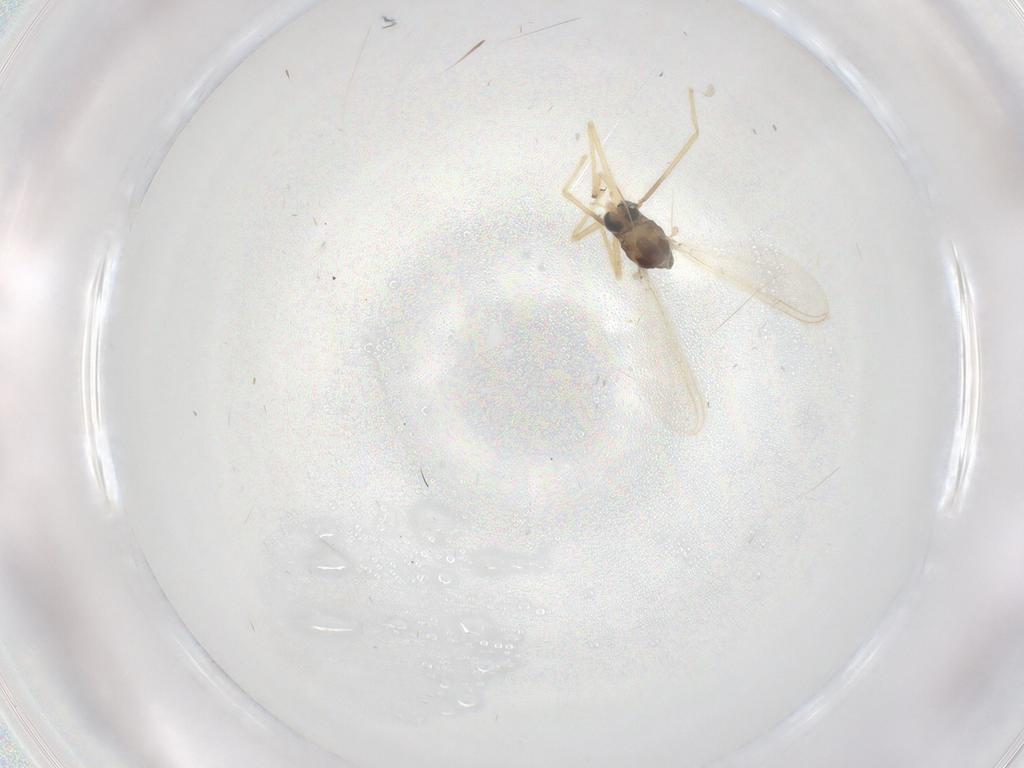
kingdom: Animalia
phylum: Arthropoda
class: Insecta
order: Diptera
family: Chironomidae
